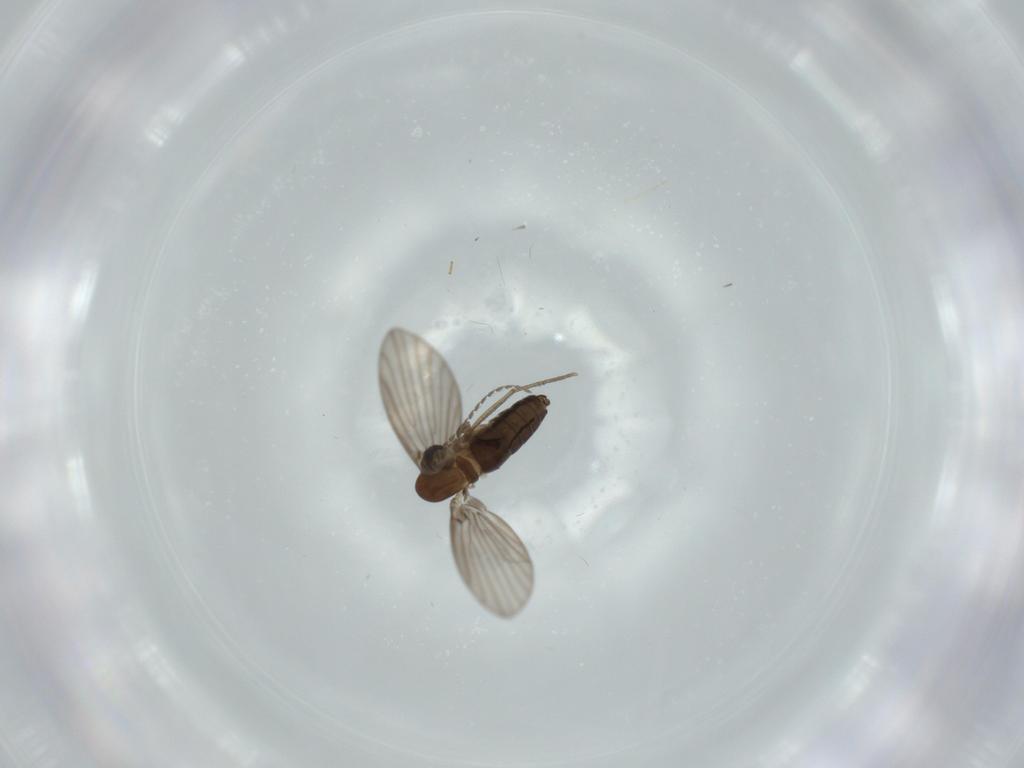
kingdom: Animalia
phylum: Arthropoda
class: Insecta
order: Diptera
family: Psychodidae
